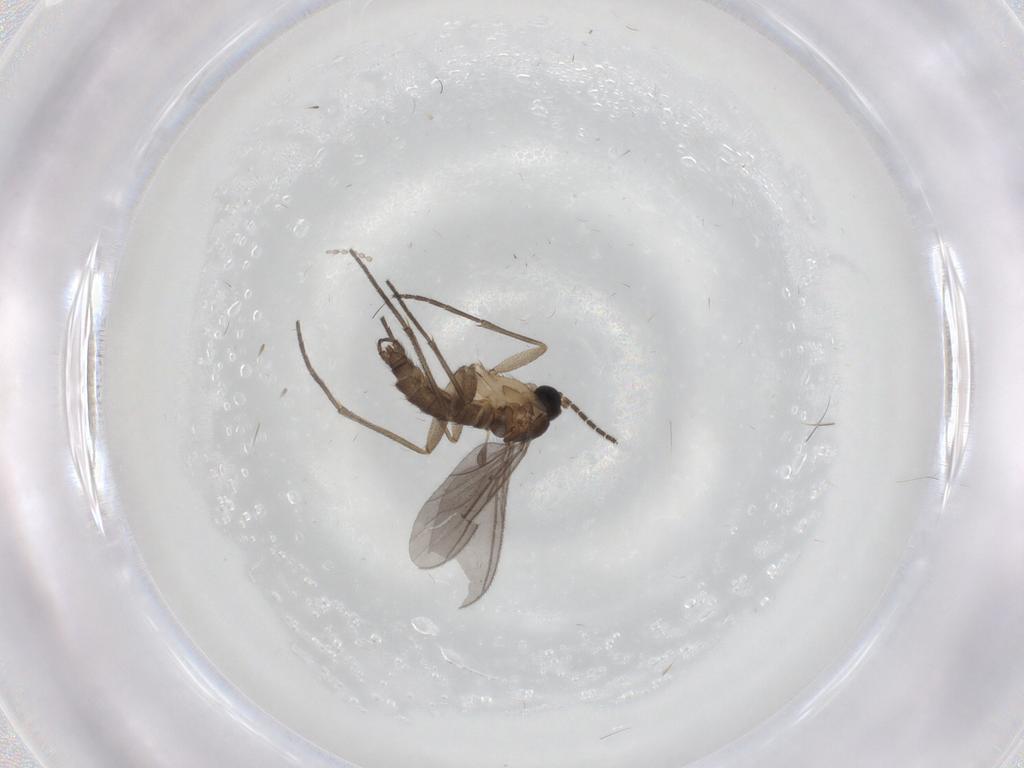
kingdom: Animalia
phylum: Arthropoda
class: Insecta
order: Diptera
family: Sciaridae
